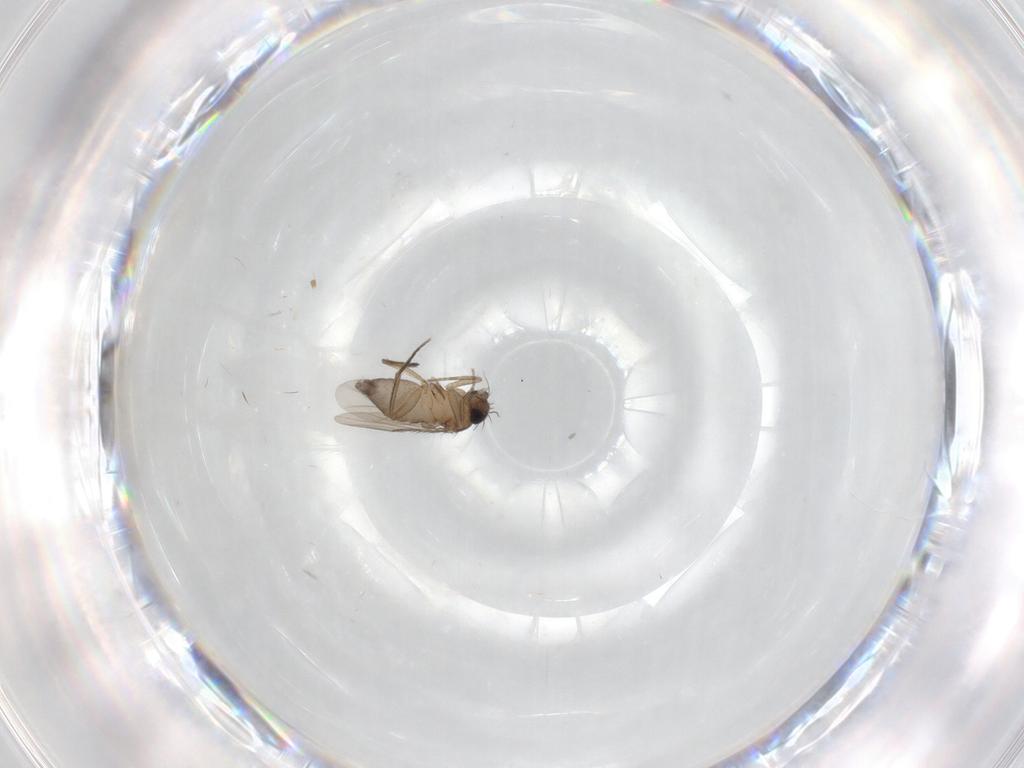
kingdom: Animalia
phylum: Arthropoda
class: Insecta
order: Diptera
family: Phoridae
